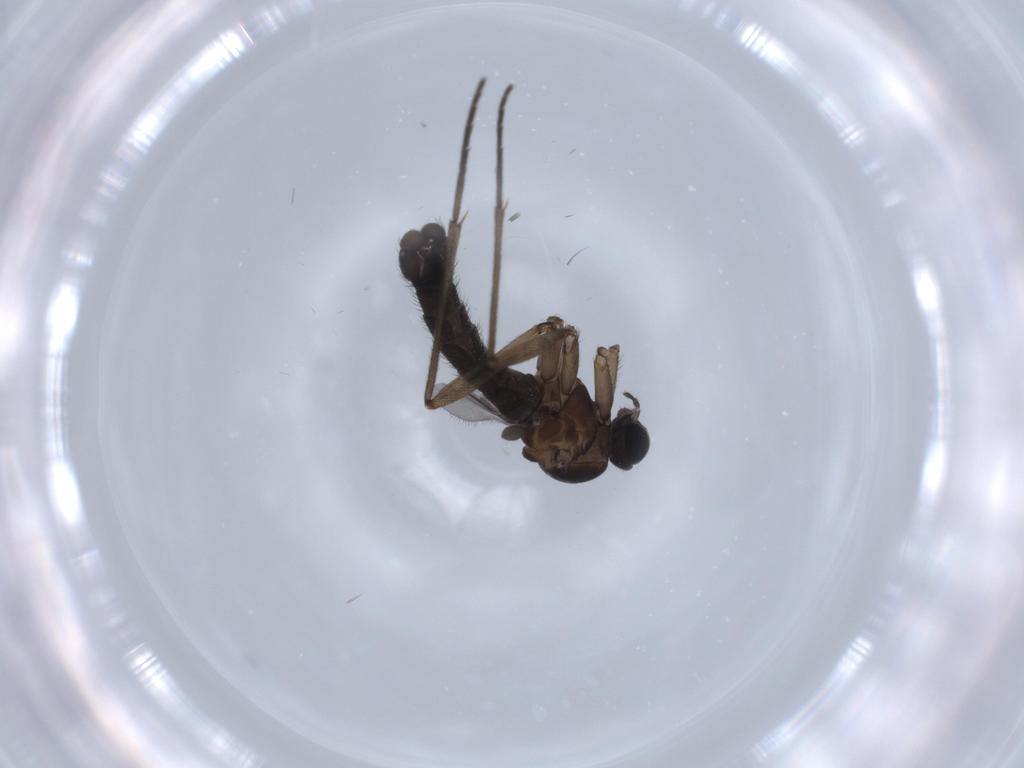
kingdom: Animalia
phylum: Arthropoda
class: Insecta
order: Diptera
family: Sciaridae
